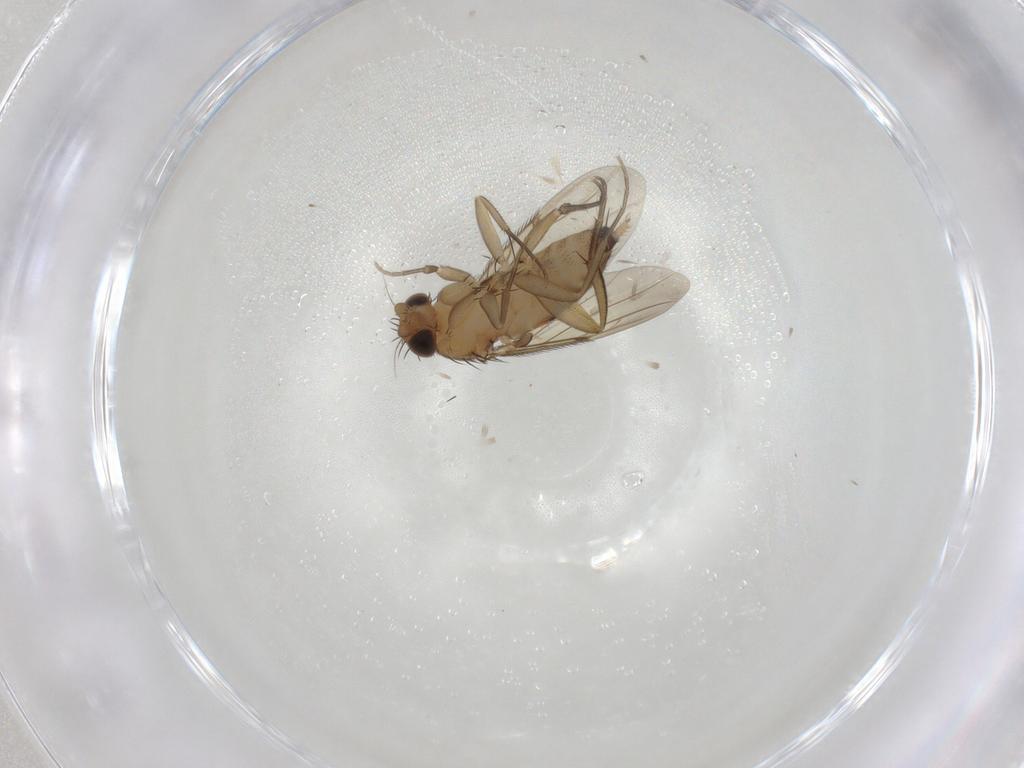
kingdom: Animalia
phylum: Arthropoda
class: Insecta
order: Diptera
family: Phoridae
